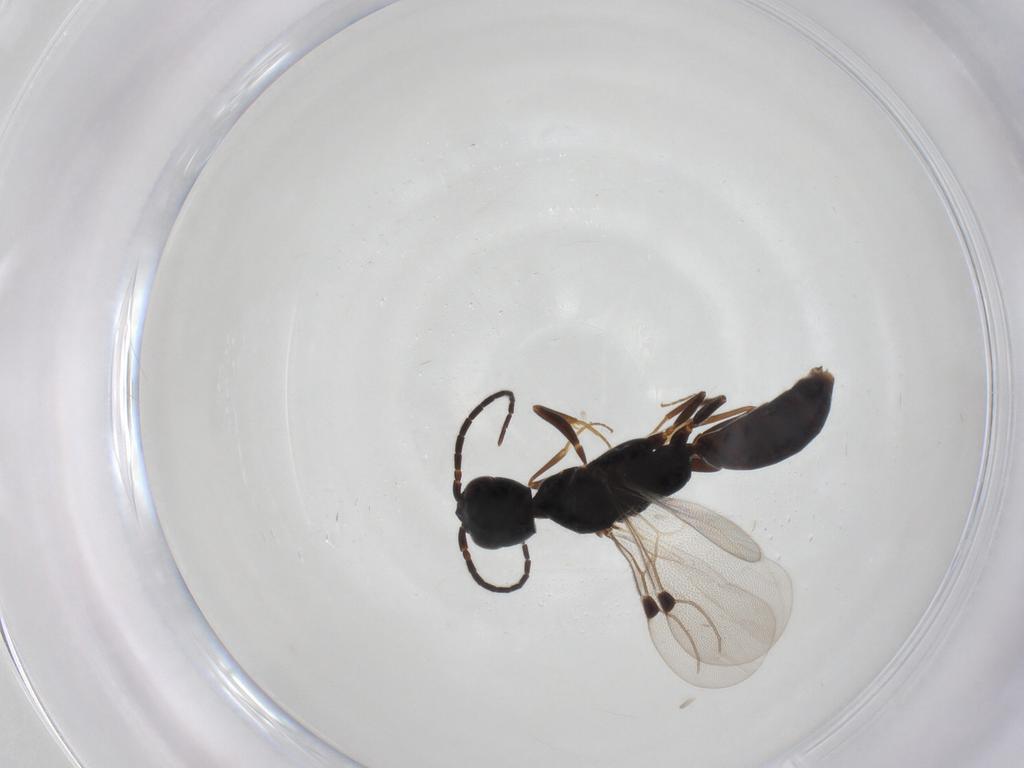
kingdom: Animalia
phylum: Arthropoda
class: Insecta
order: Hymenoptera
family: Bethylidae
